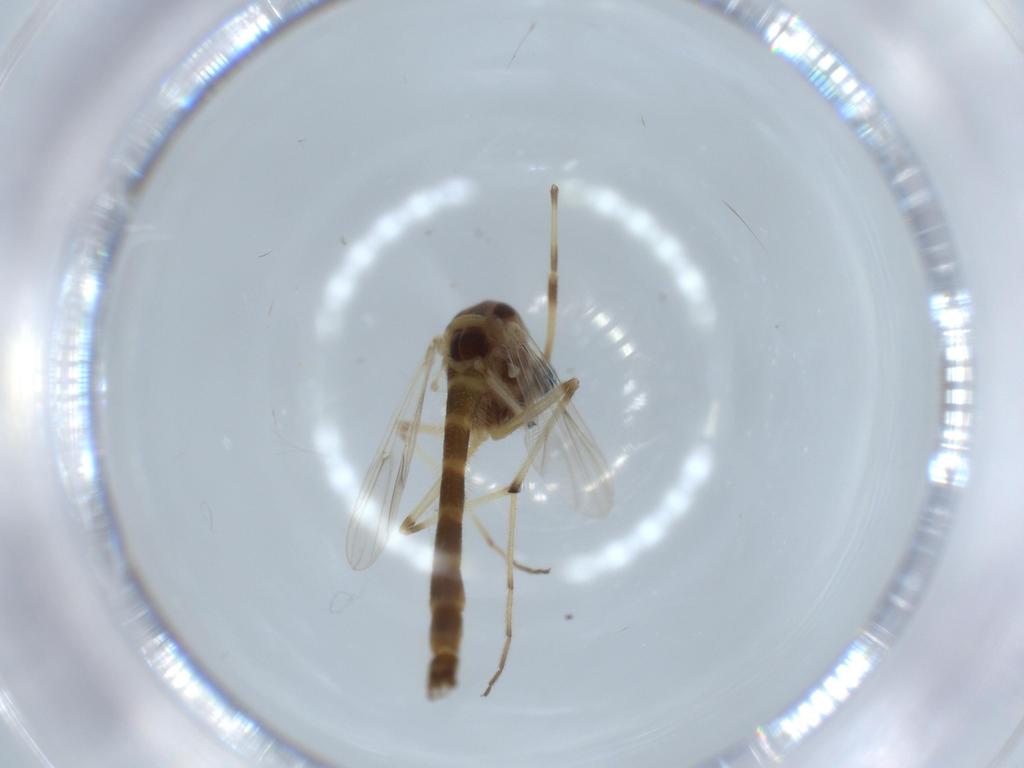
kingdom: Animalia
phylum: Arthropoda
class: Insecta
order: Diptera
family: Chironomidae
